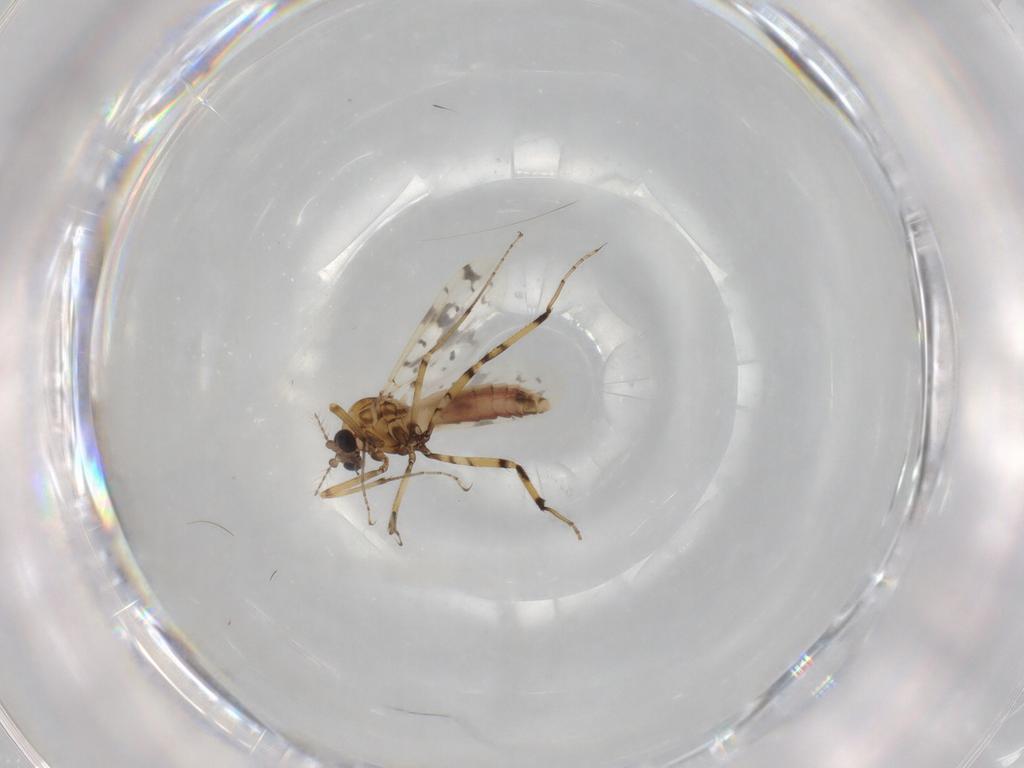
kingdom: Animalia
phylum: Arthropoda
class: Insecta
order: Diptera
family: Ceratopogonidae
